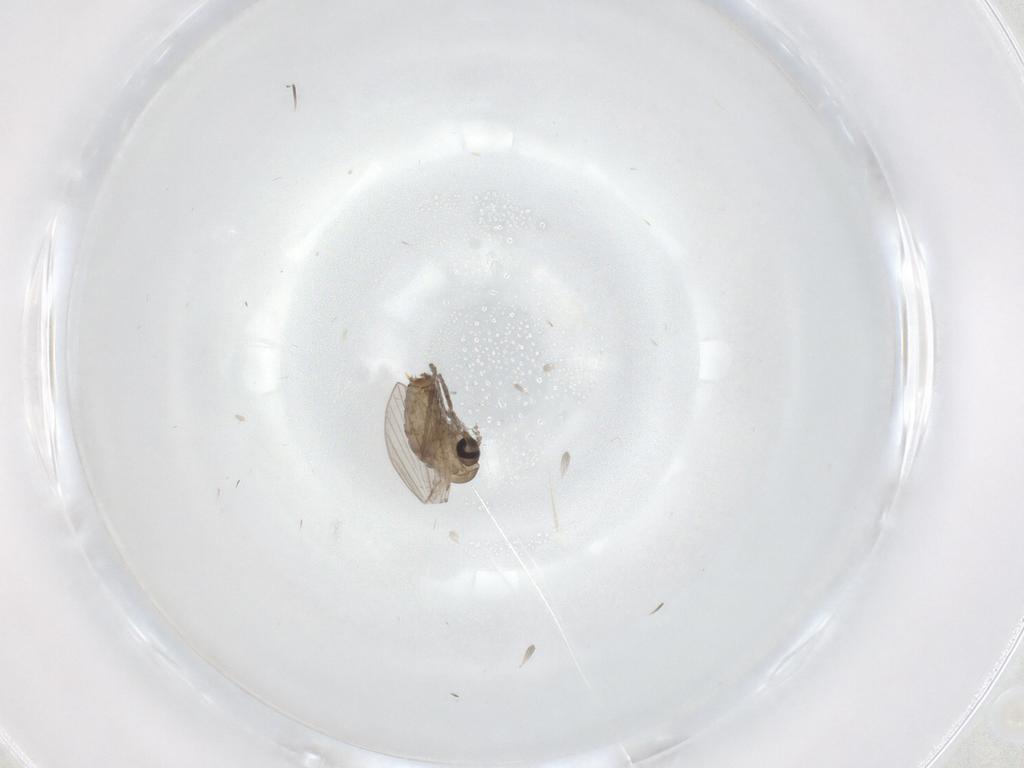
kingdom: Animalia
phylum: Arthropoda
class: Insecta
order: Diptera
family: Psychodidae
